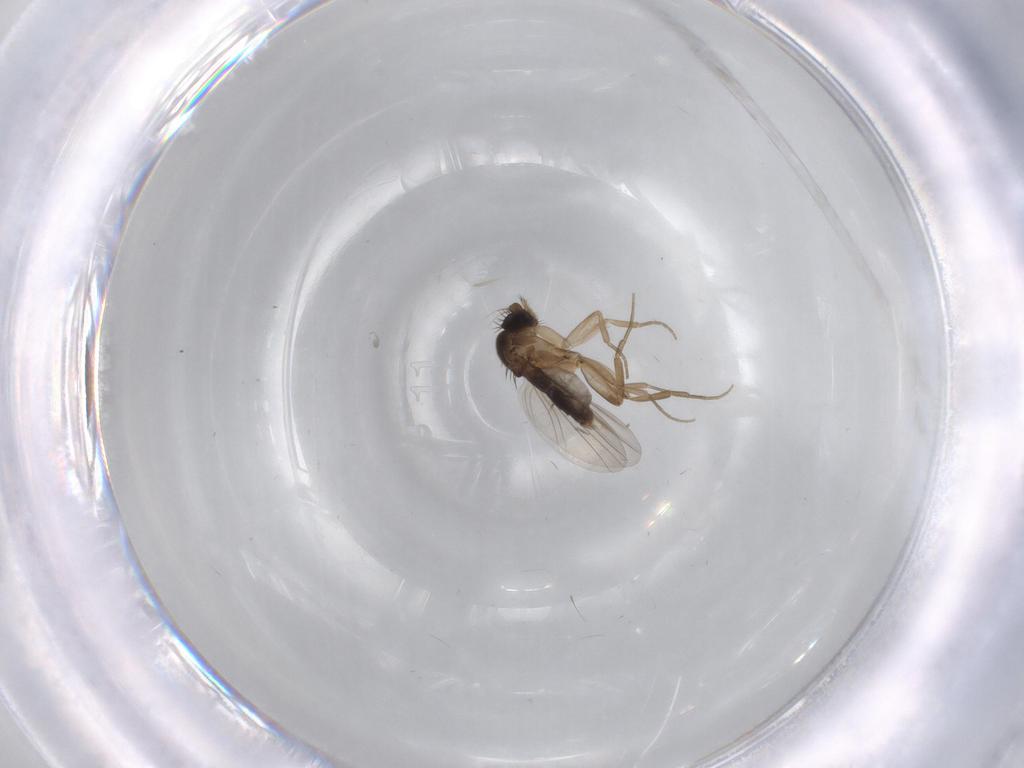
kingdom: Animalia
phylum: Arthropoda
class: Insecta
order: Diptera
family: Phoridae
